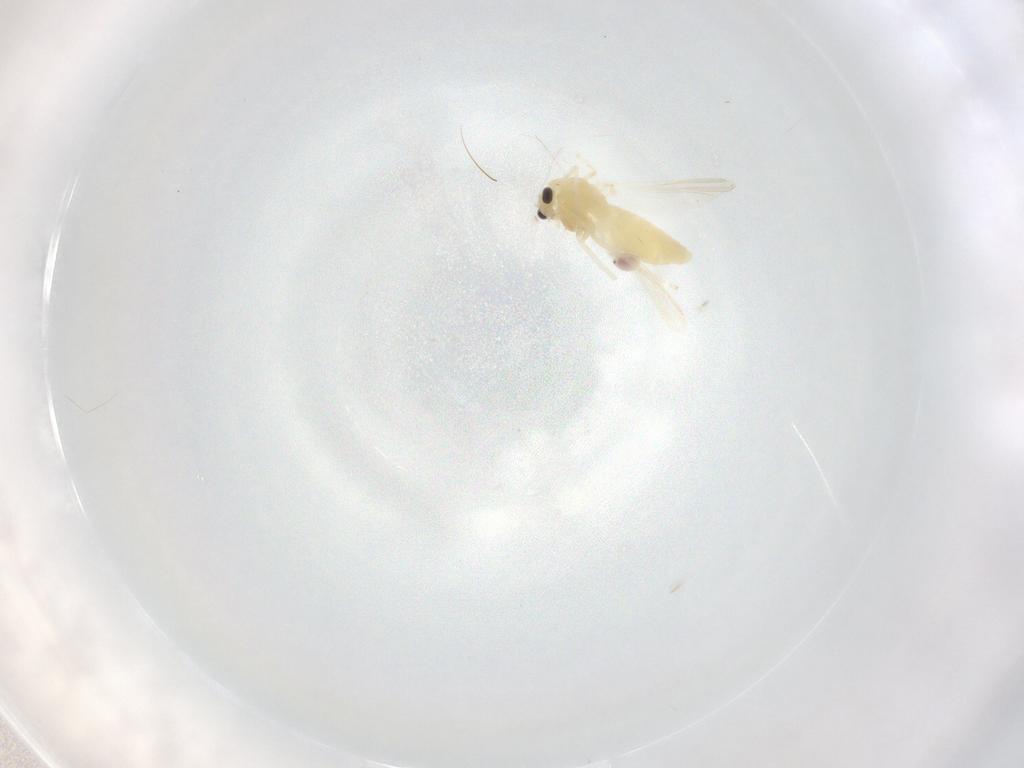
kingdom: Animalia
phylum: Arthropoda
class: Insecta
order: Diptera
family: Chironomidae
